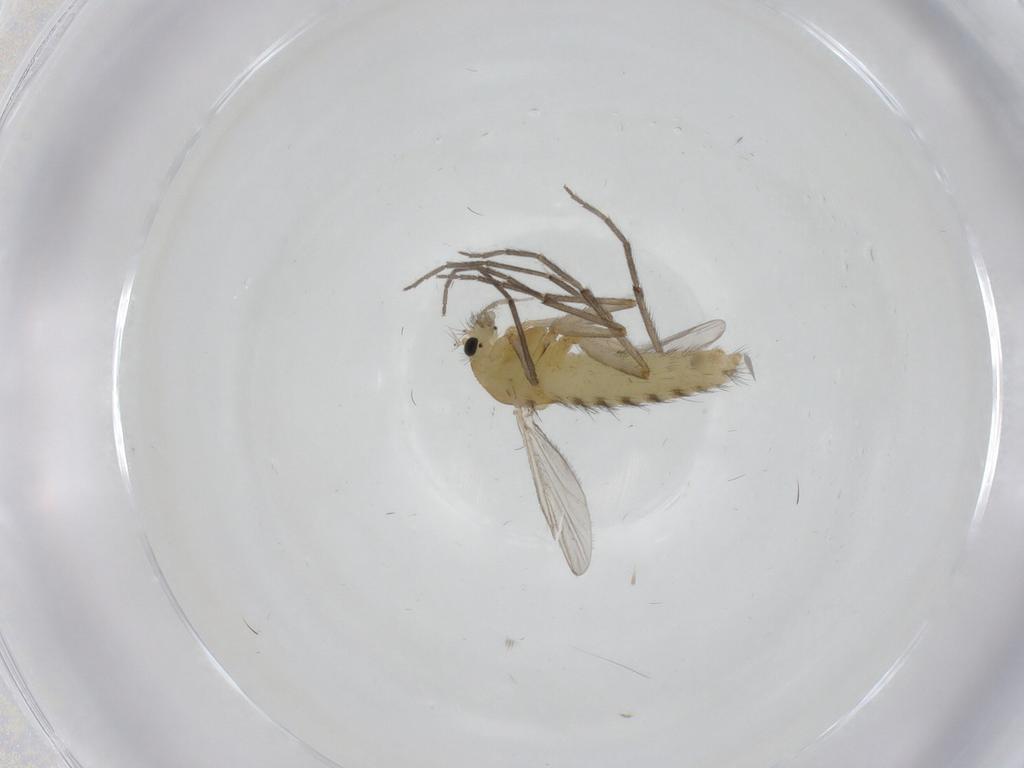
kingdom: Animalia
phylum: Arthropoda
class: Insecta
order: Diptera
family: Chironomidae
